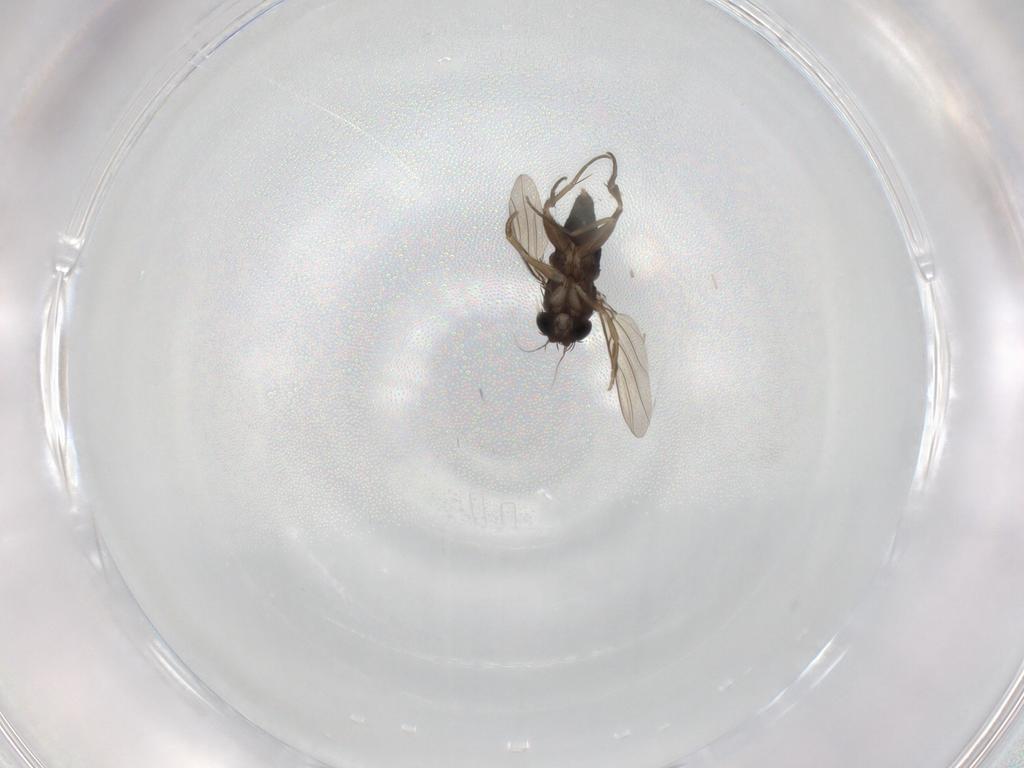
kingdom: Animalia
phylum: Arthropoda
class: Insecta
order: Diptera
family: Phoridae
